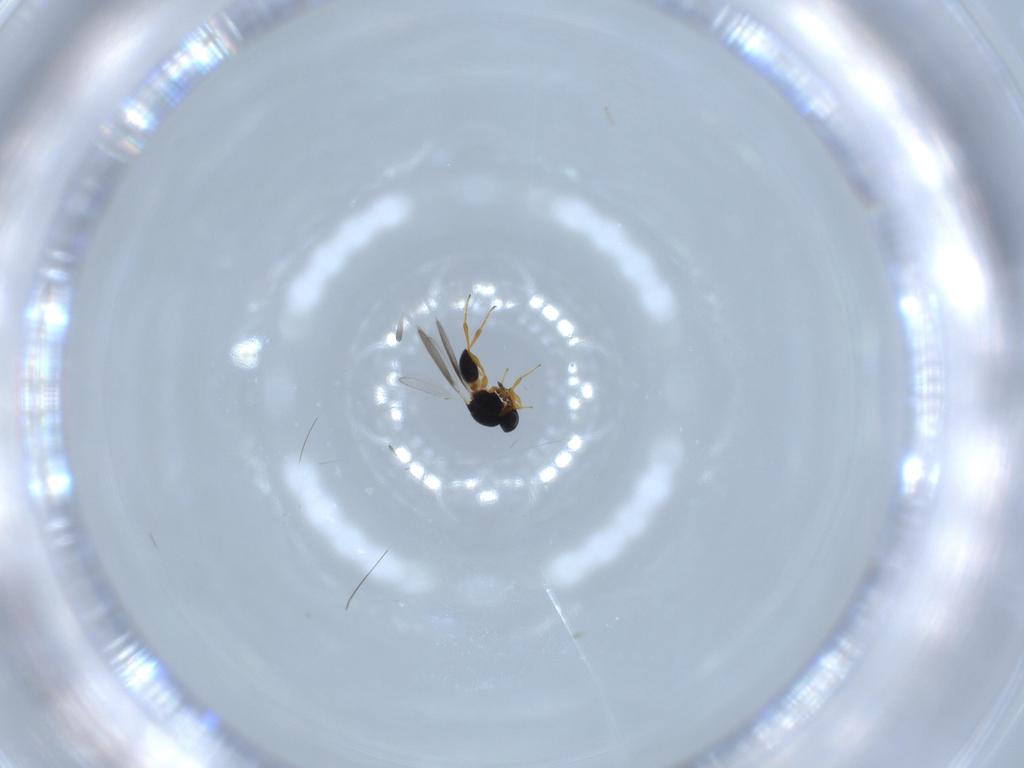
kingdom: Animalia
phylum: Arthropoda
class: Insecta
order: Hymenoptera
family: Platygastridae
